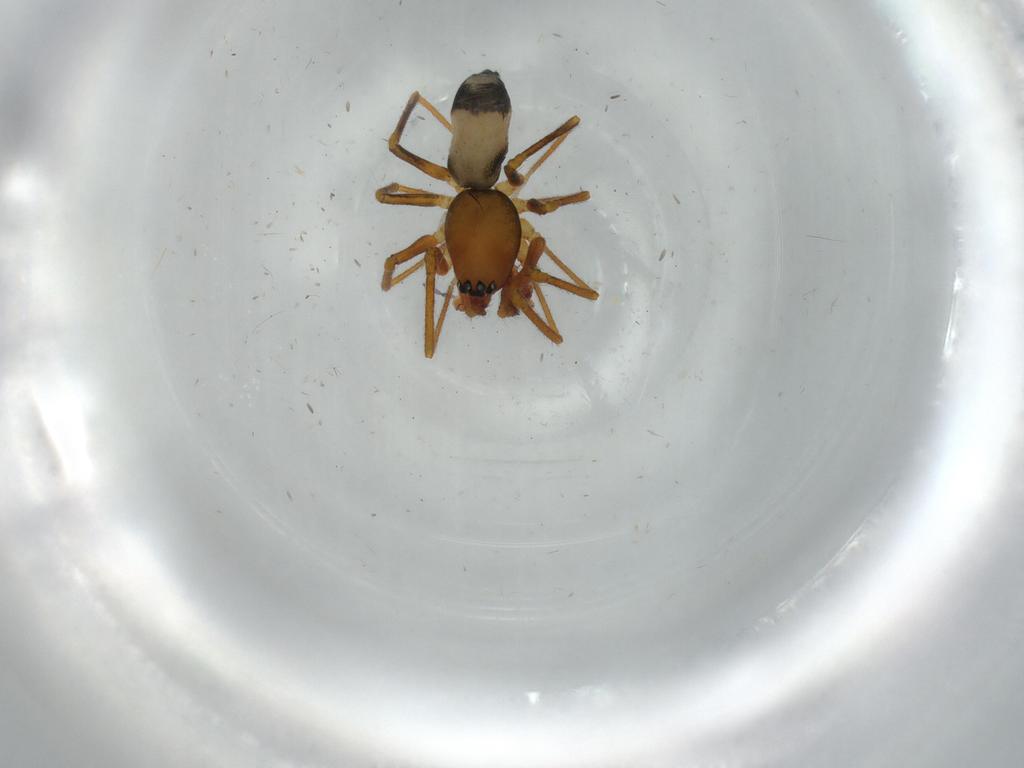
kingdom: Animalia
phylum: Arthropoda
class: Arachnida
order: Araneae
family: Linyphiidae
